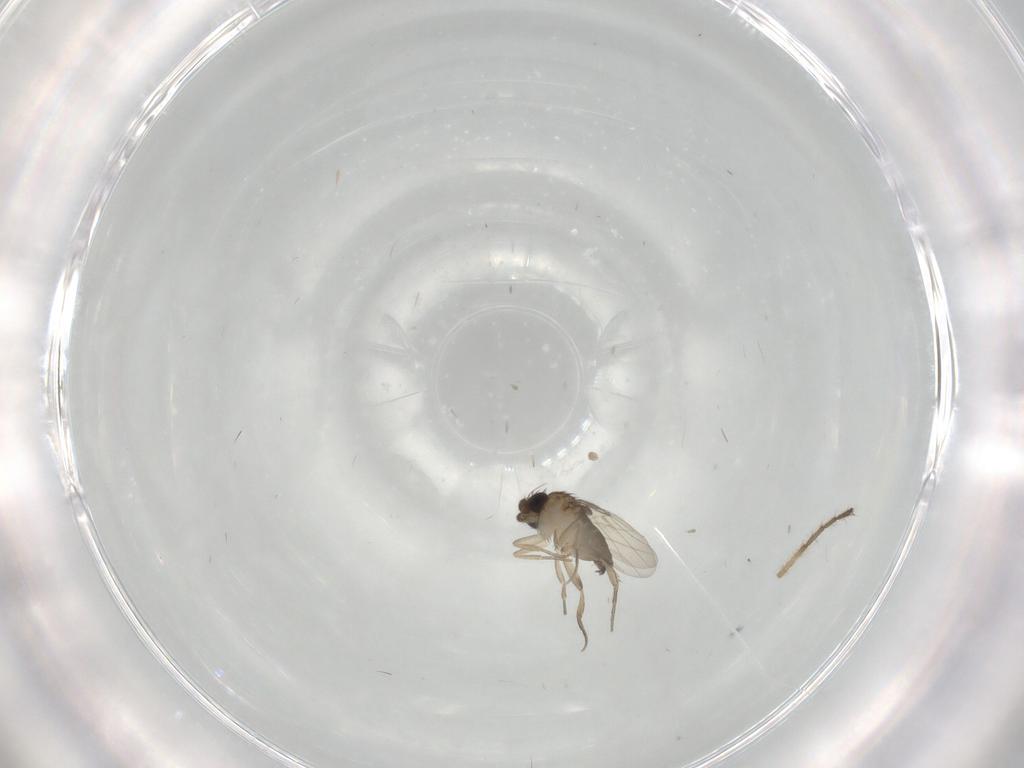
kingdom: Animalia
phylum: Arthropoda
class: Insecta
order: Diptera
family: Phoridae
